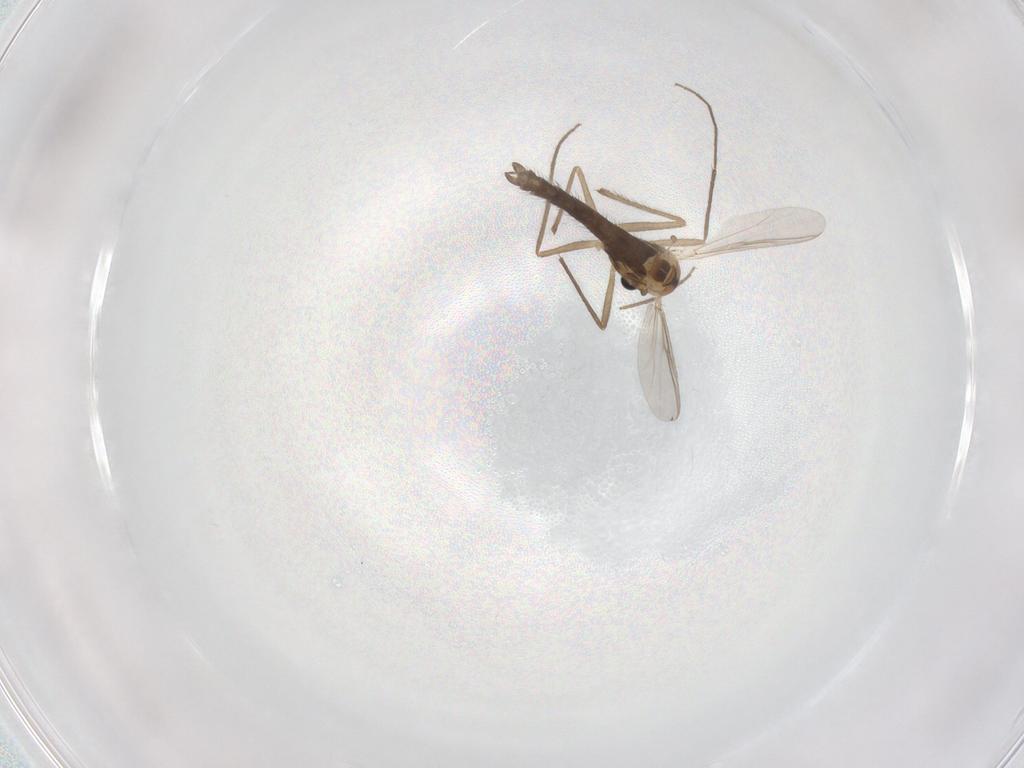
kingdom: Animalia
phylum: Arthropoda
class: Insecta
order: Diptera
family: Chironomidae
